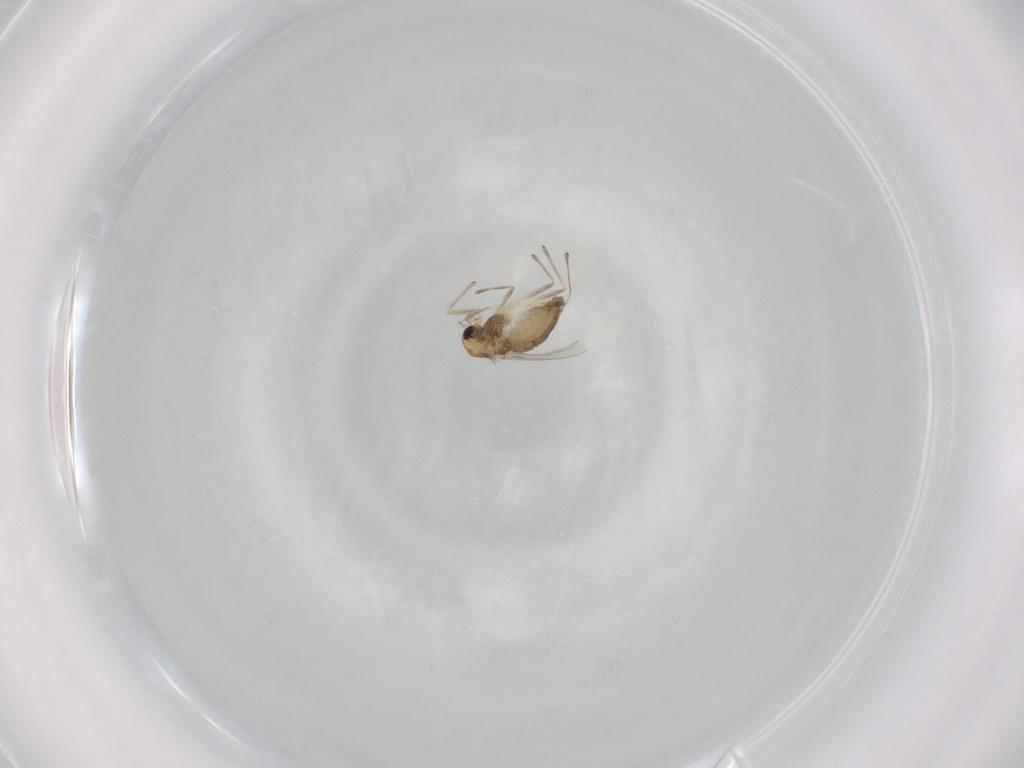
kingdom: Animalia
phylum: Arthropoda
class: Insecta
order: Diptera
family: Chironomidae
